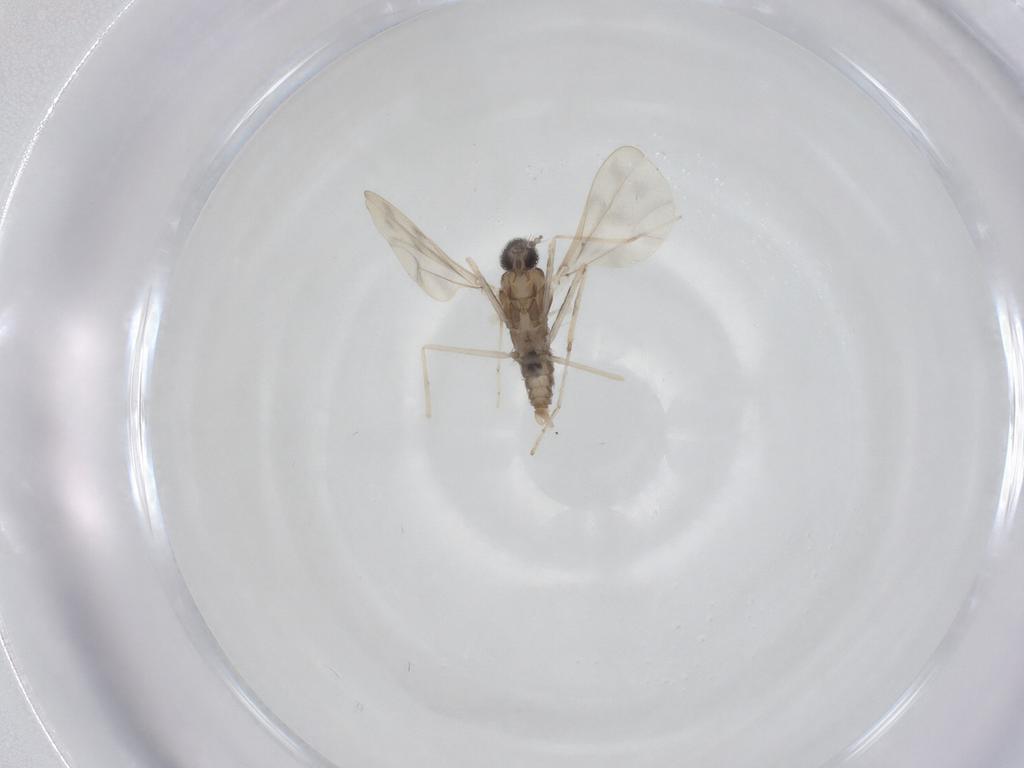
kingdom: Animalia
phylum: Arthropoda
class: Insecta
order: Diptera
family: Cecidomyiidae
